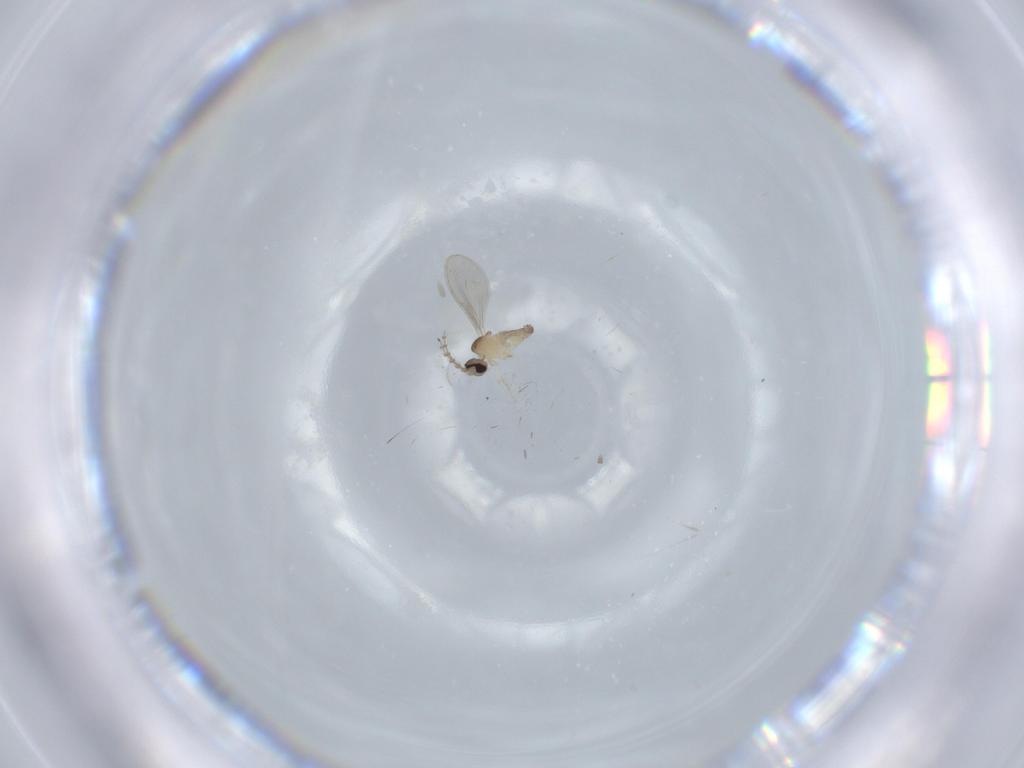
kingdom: Animalia
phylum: Arthropoda
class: Insecta
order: Diptera
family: Cecidomyiidae
